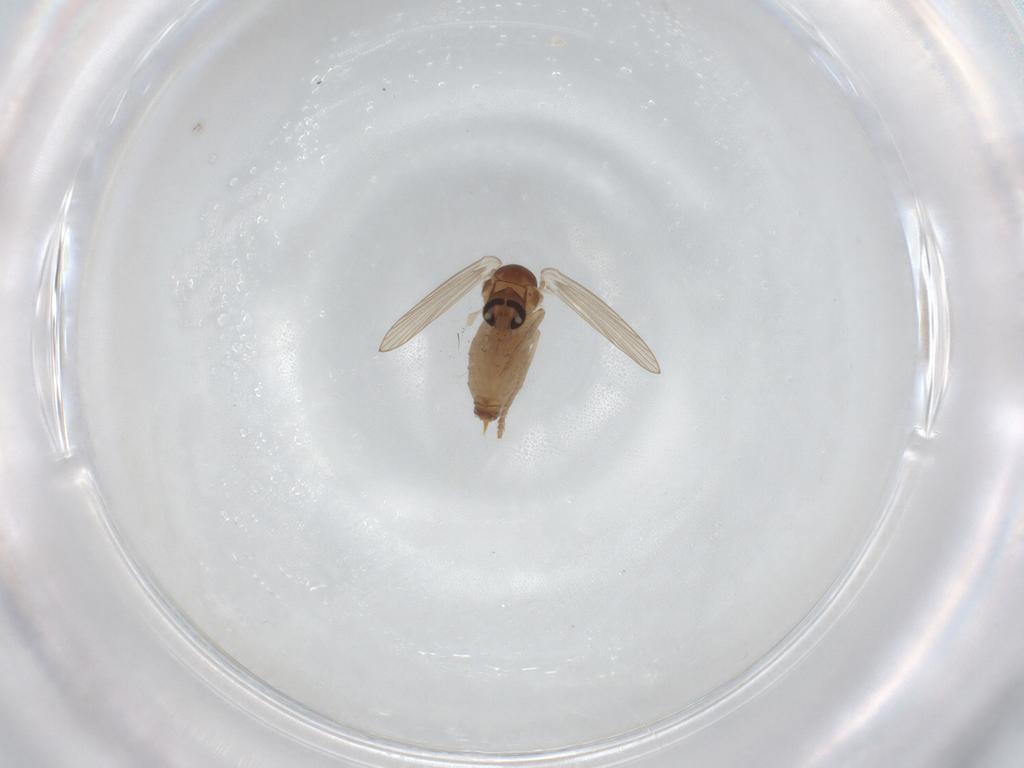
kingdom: Animalia
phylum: Arthropoda
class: Insecta
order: Diptera
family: Psychodidae
